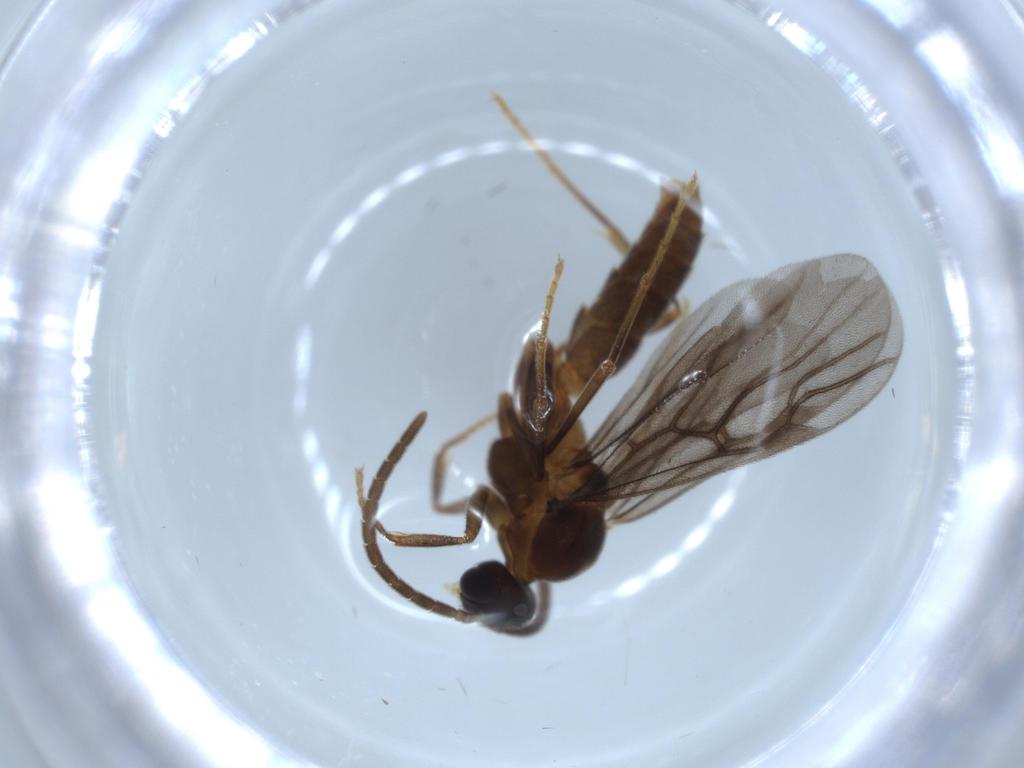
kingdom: Animalia
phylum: Arthropoda
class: Insecta
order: Hymenoptera
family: Formicidae
